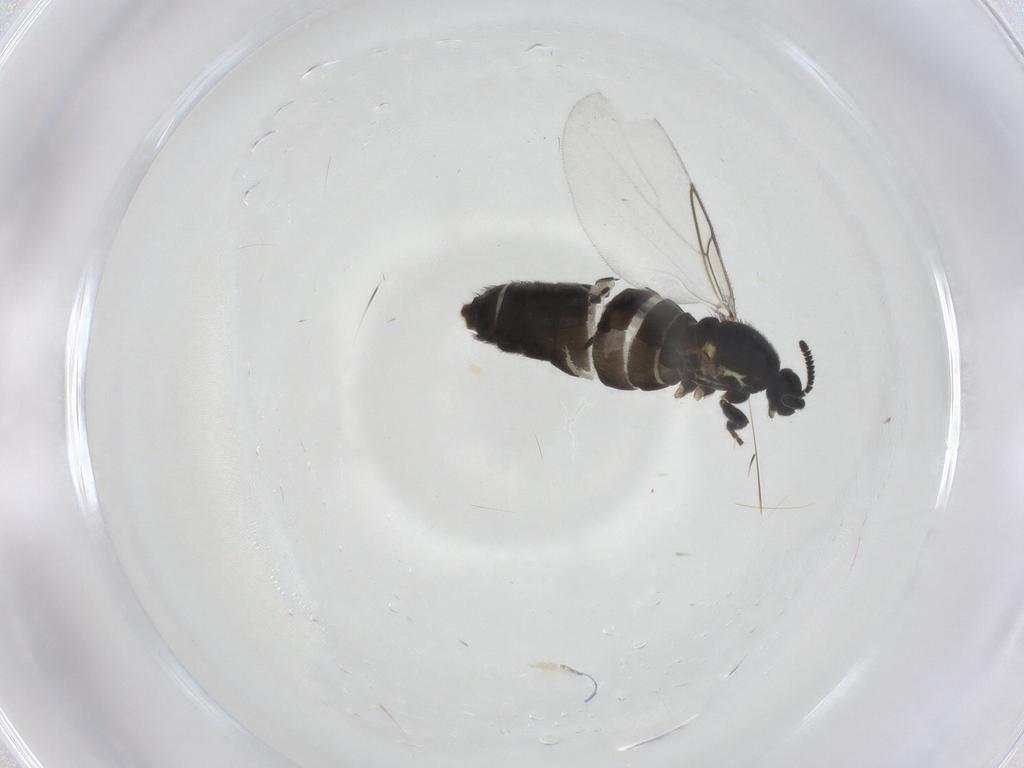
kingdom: Animalia
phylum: Arthropoda
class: Insecta
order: Diptera
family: Scatopsidae
